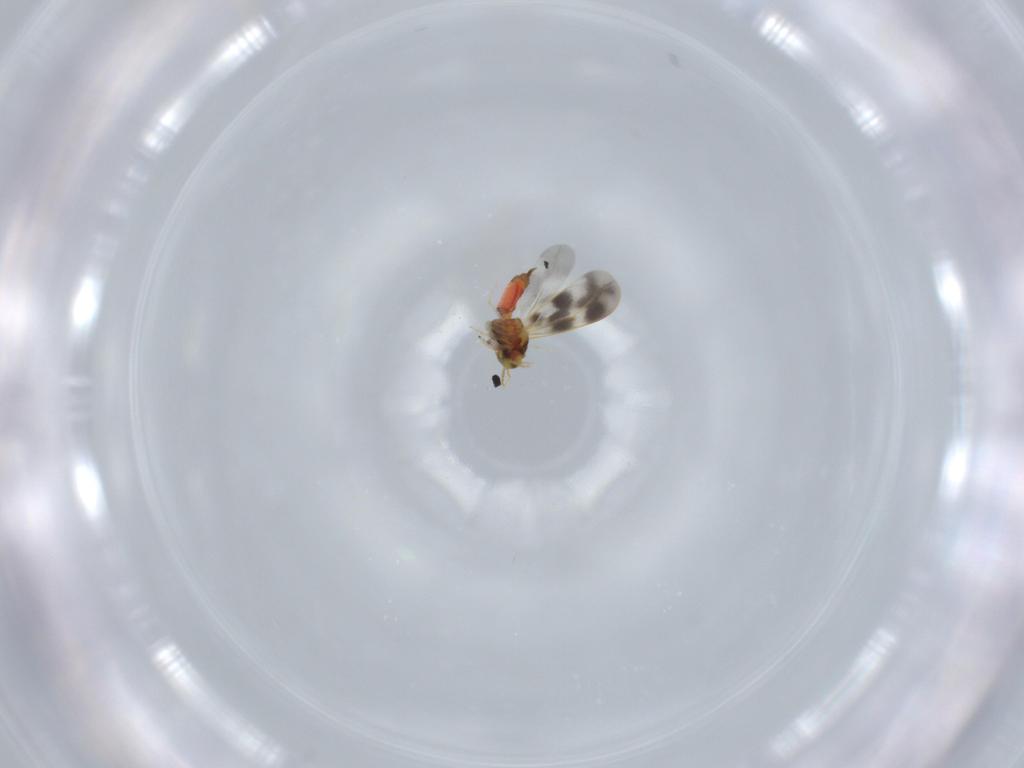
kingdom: Animalia
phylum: Arthropoda
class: Insecta
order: Hemiptera
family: Aleyrodidae
